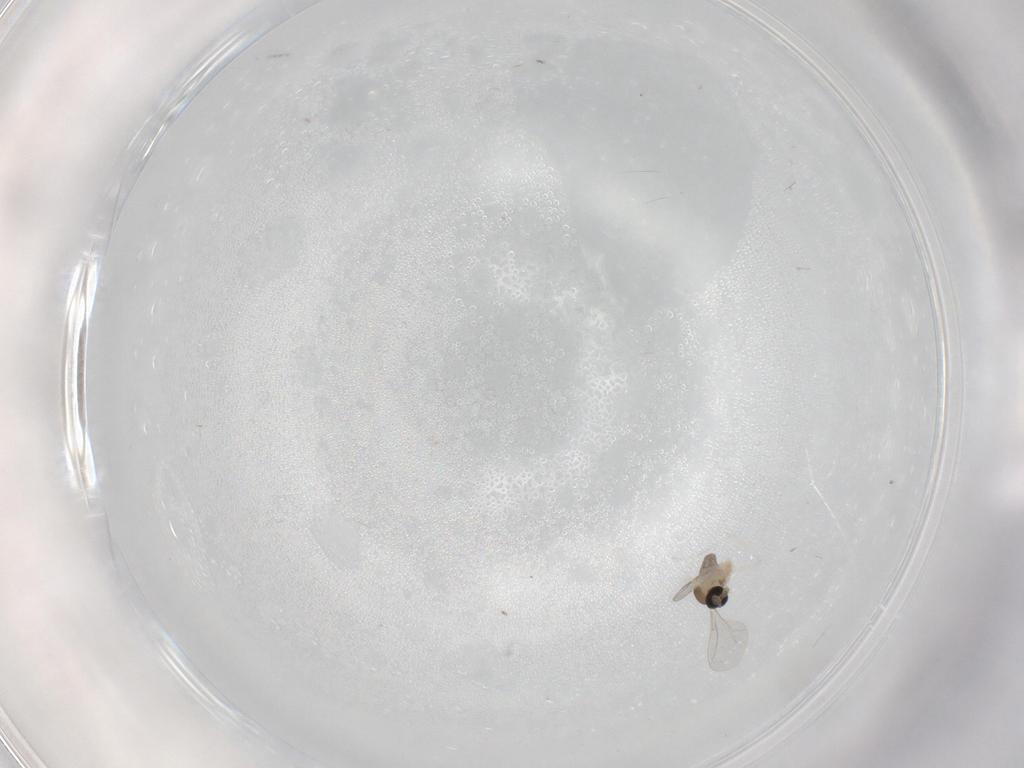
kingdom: Animalia
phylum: Arthropoda
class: Insecta
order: Diptera
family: Cecidomyiidae
